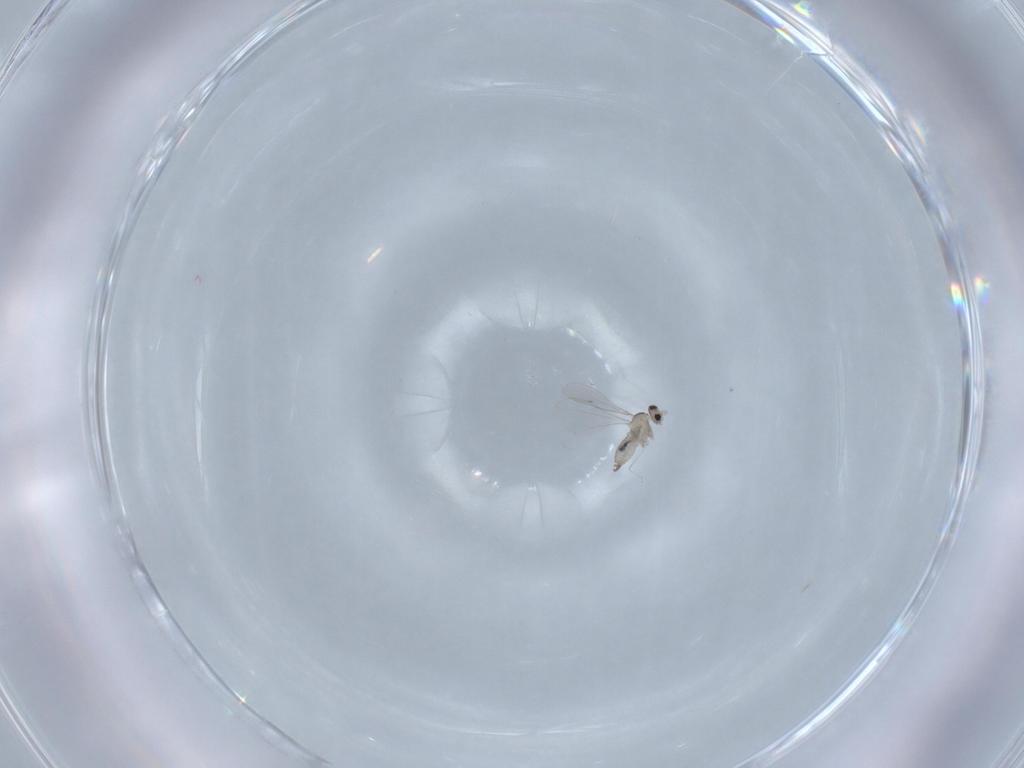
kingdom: Animalia
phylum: Arthropoda
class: Insecta
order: Diptera
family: Cecidomyiidae
